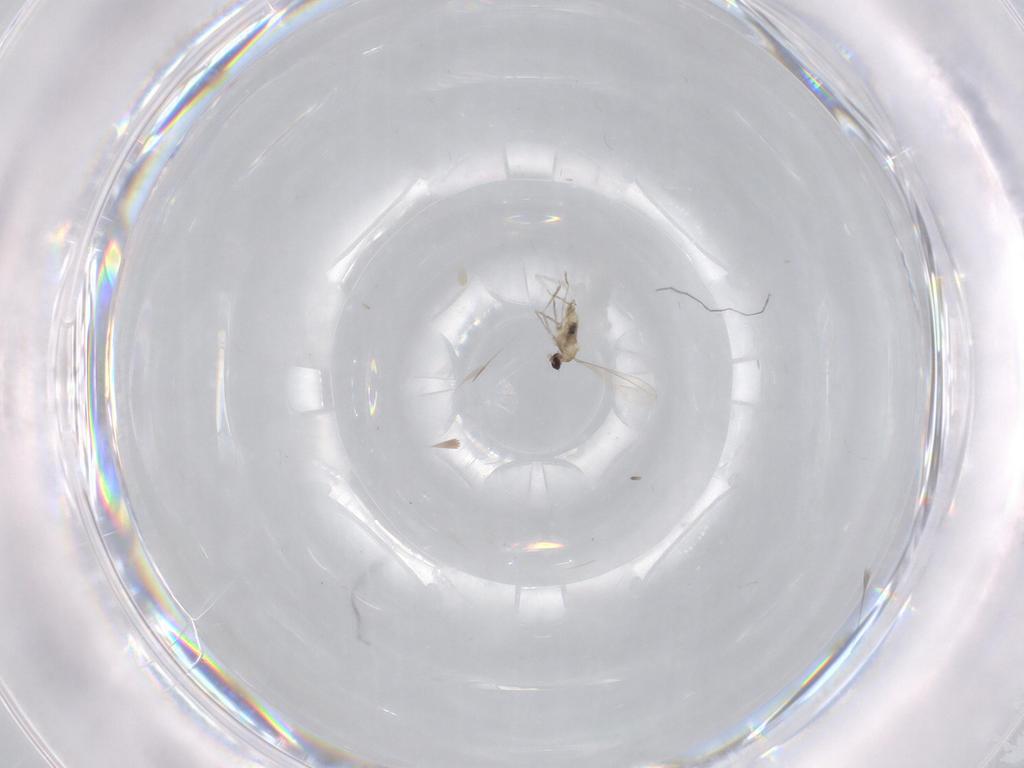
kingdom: Animalia
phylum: Arthropoda
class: Insecta
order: Diptera
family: Cecidomyiidae
